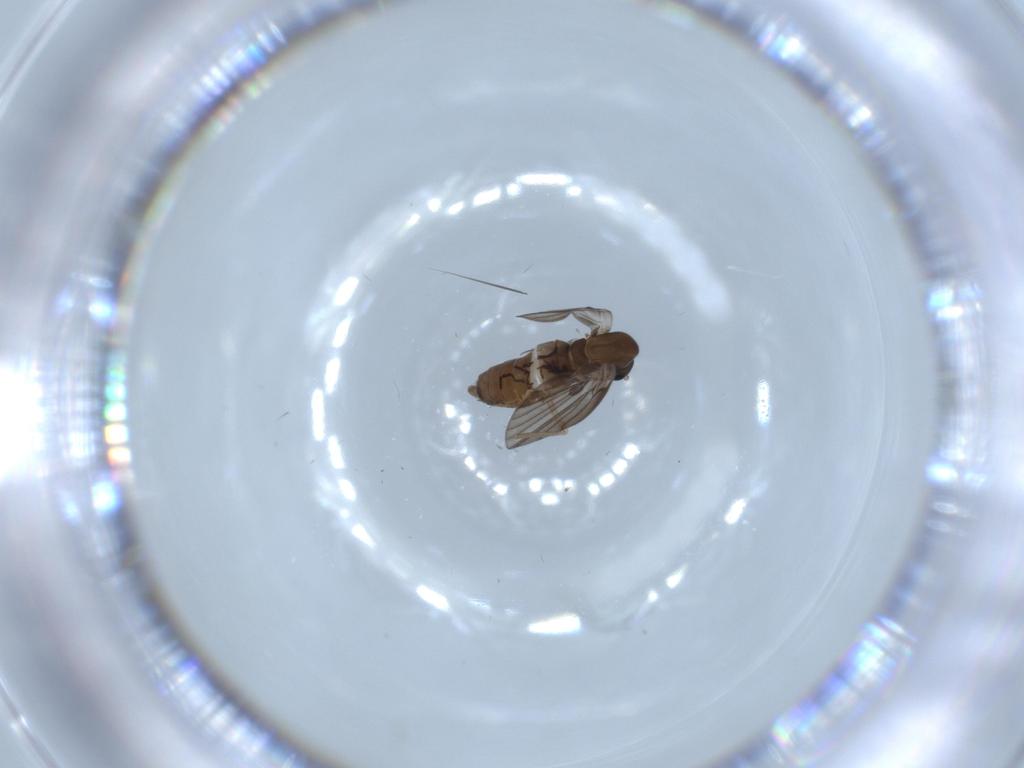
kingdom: Animalia
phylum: Arthropoda
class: Insecta
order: Diptera
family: Psychodidae
